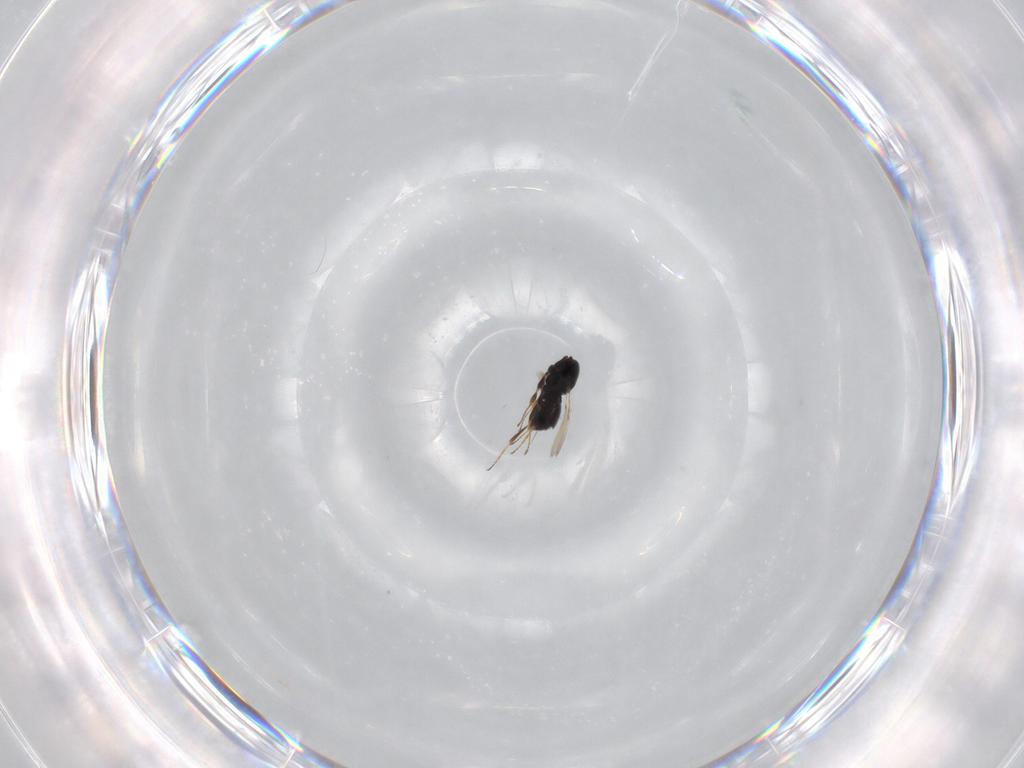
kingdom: Animalia
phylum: Arthropoda
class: Insecta
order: Hymenoptera
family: Scelionidae
